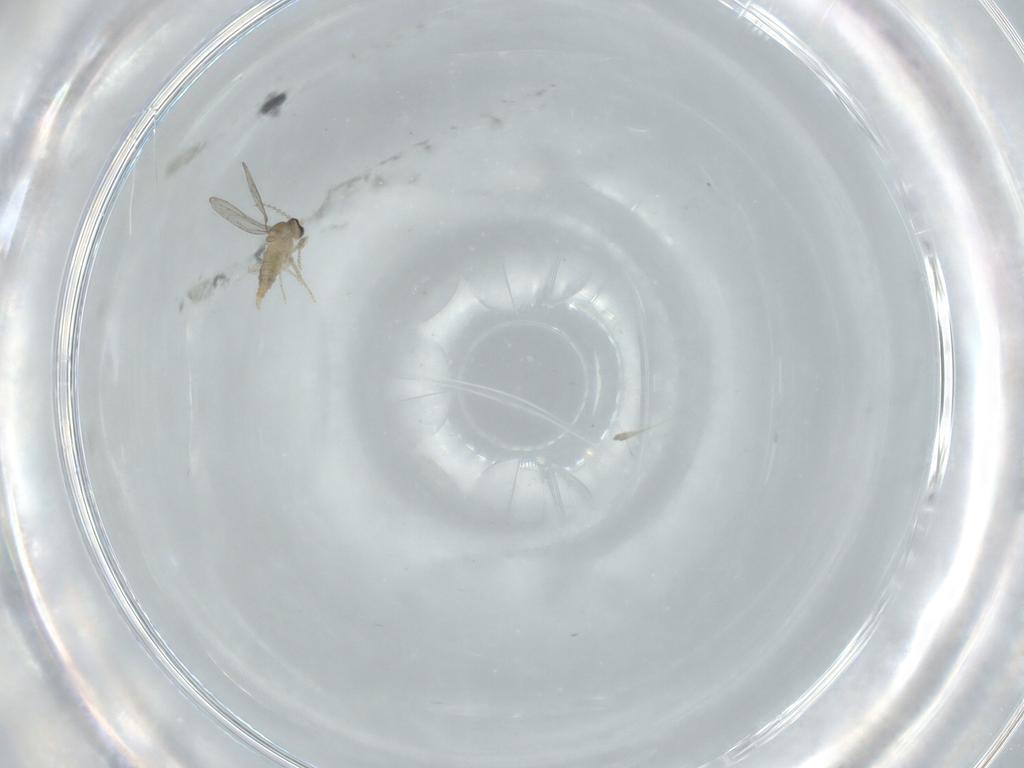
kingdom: Animalia
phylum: Arthropoda
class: Insecta
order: Diptera
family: Cecidomyiidae
